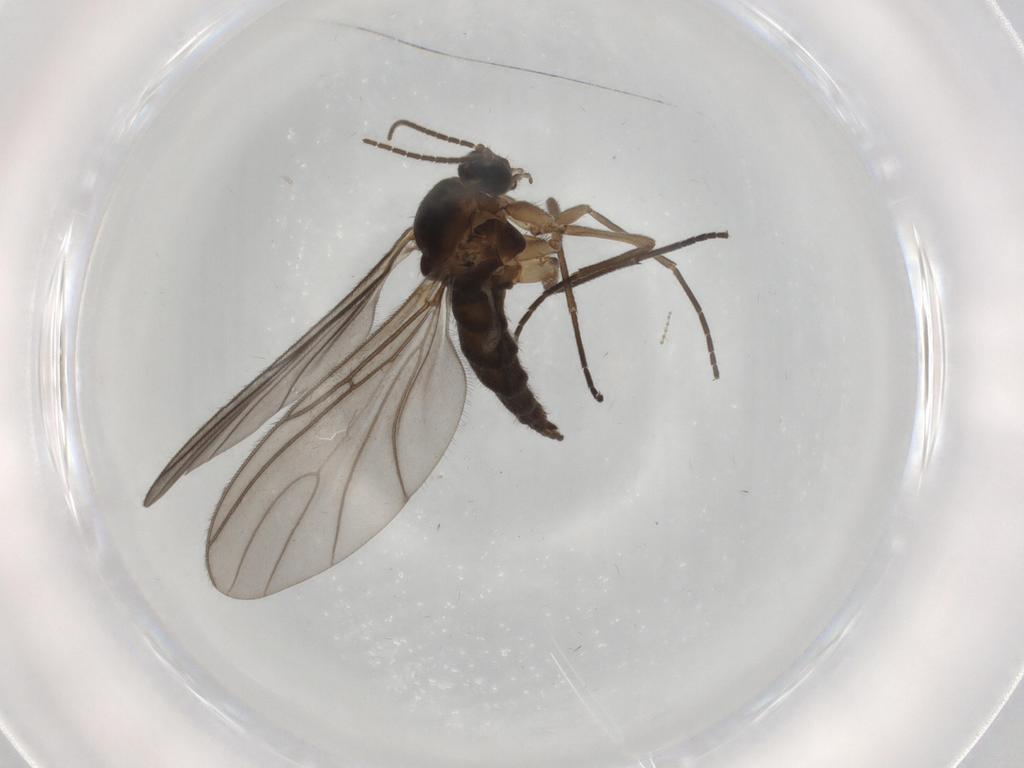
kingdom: Animalia
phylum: Arthropoda
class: Insecta
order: Diptera
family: Sciaridae
